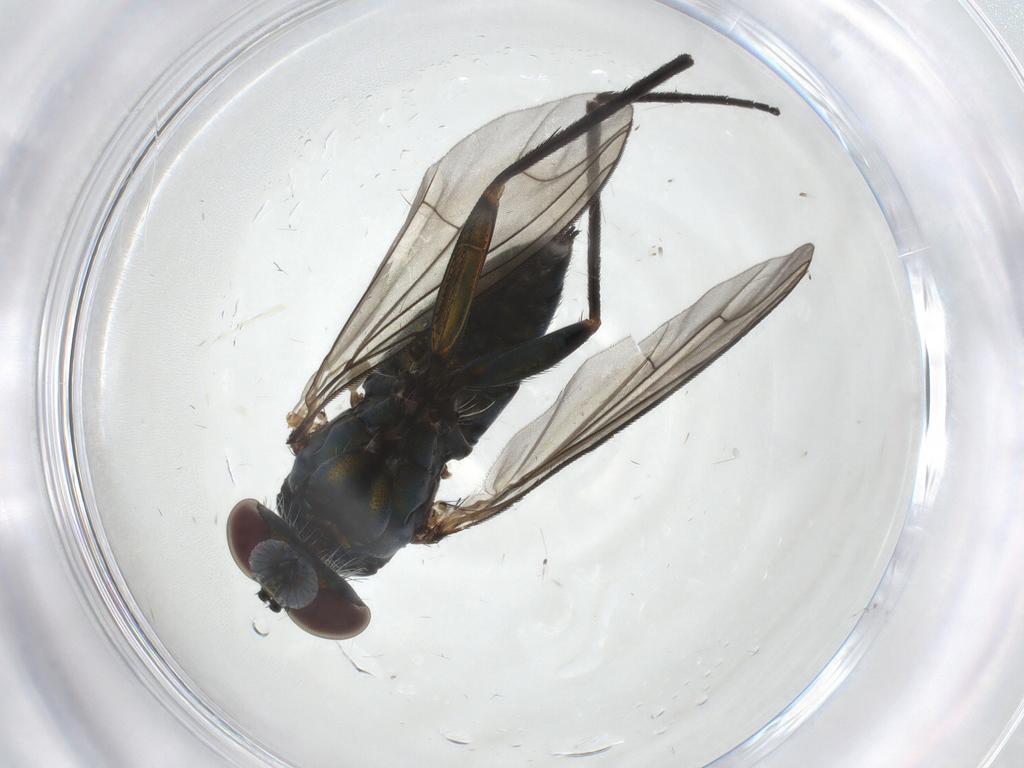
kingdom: Animalia
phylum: Arthropoda
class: Insecta
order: Diptera
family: Dolichopodidae
